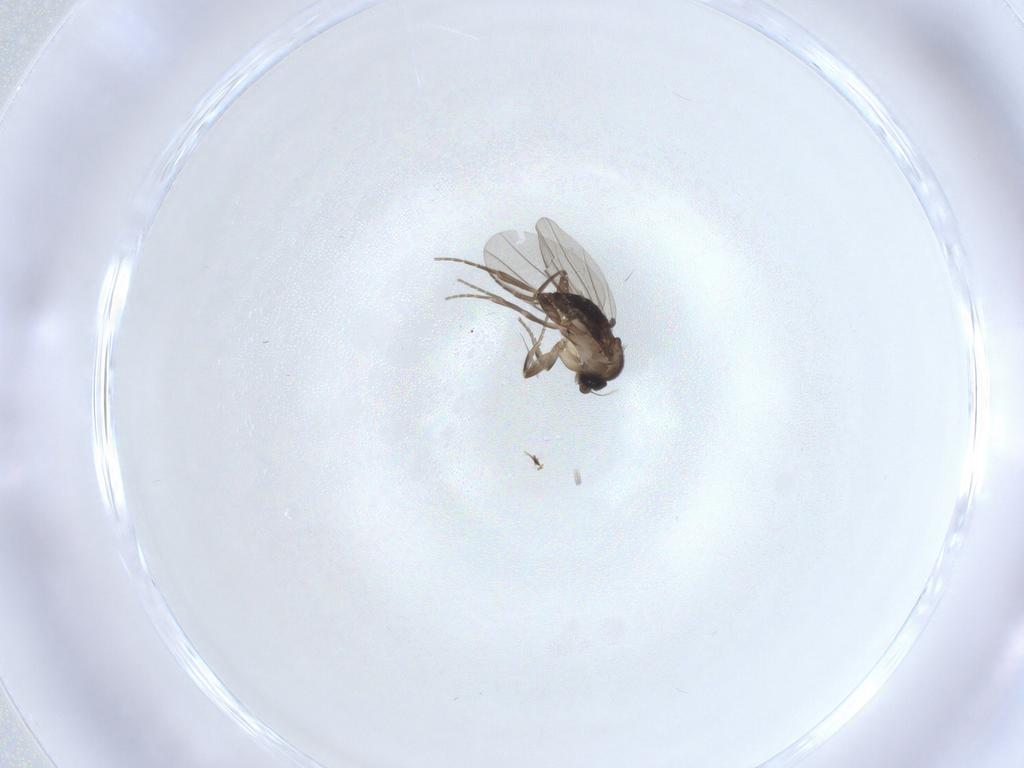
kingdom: Animalia
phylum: Arthropoda
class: Insecta
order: Diptera
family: Phoridae
